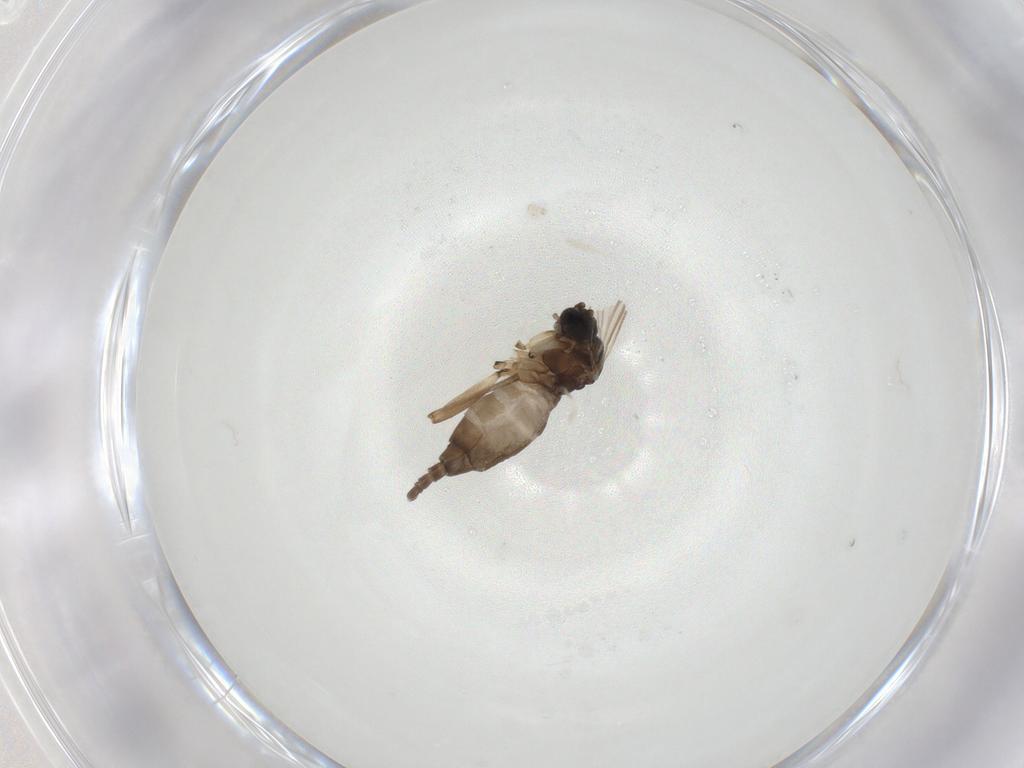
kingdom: Animalia
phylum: Arthropoda
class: Insecta
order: Diptera
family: Sciaridae
